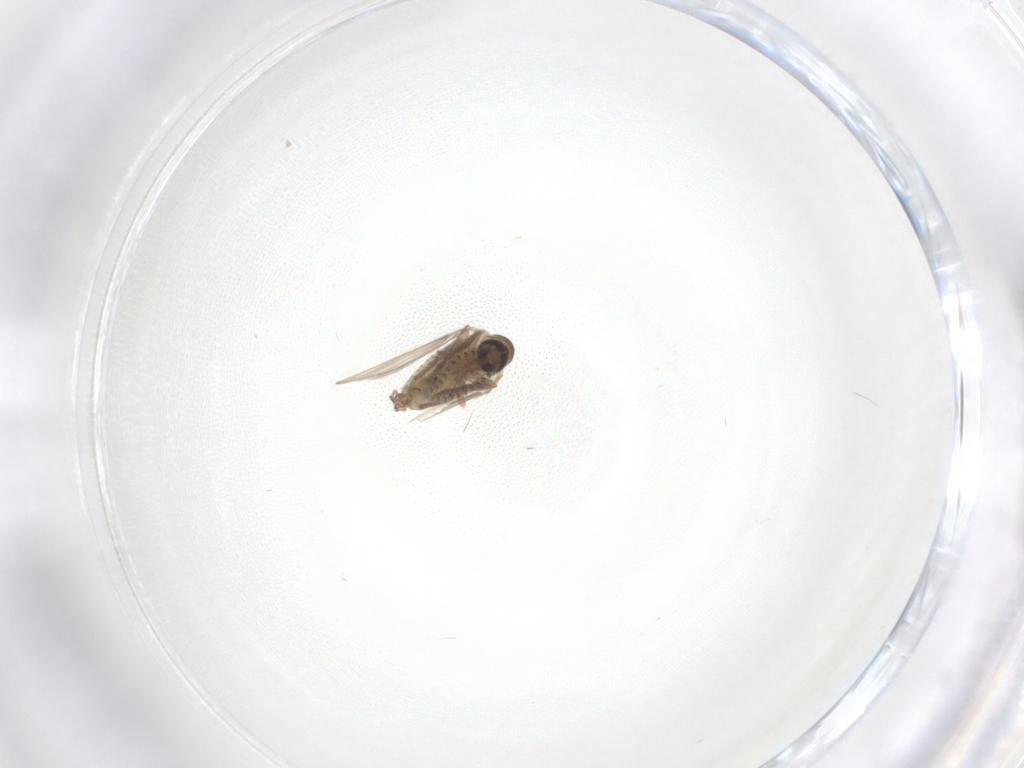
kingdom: Animalia
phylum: Arthropoda
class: Insecta
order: Diptera
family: Psychodidae
